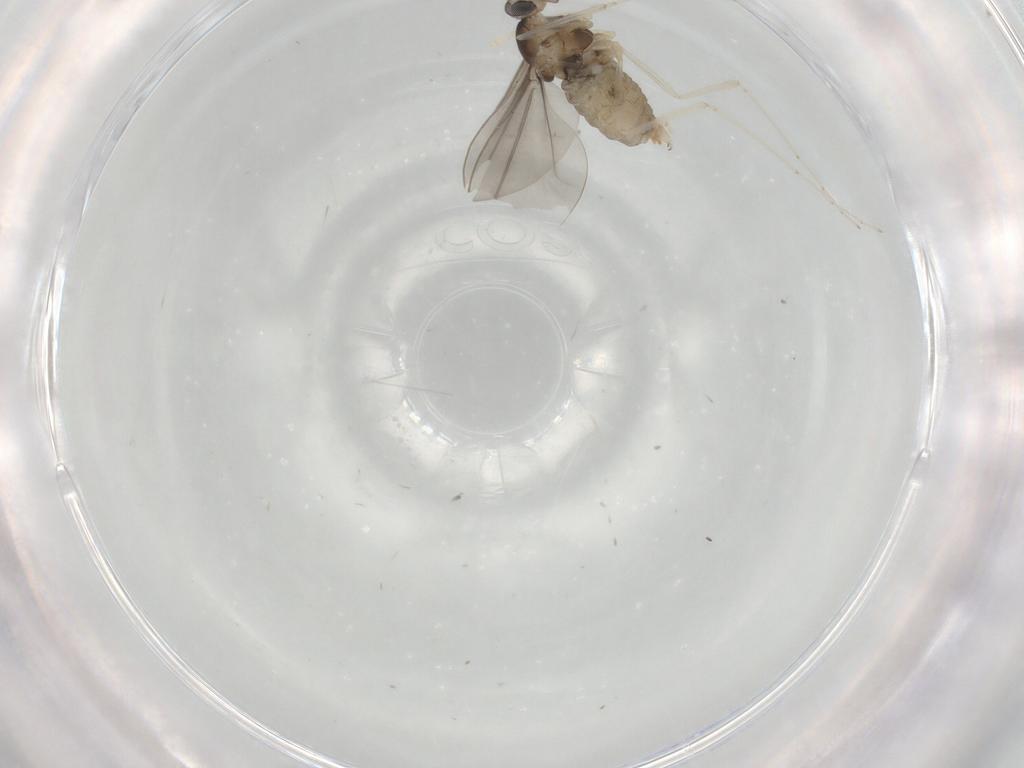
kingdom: Animalia
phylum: Arthropoda
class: Insecta
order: Diptera
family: Cecidomyiidae
